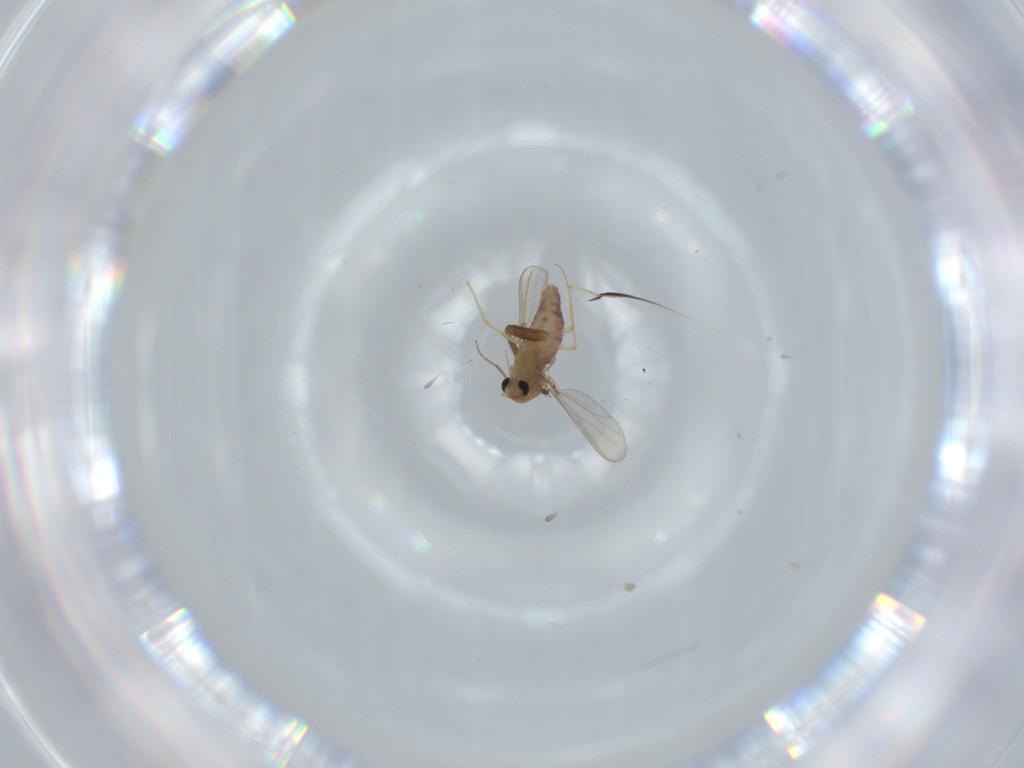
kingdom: Animalia
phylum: Arthropoda
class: Insecta
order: Diptera
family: Chironomidae
